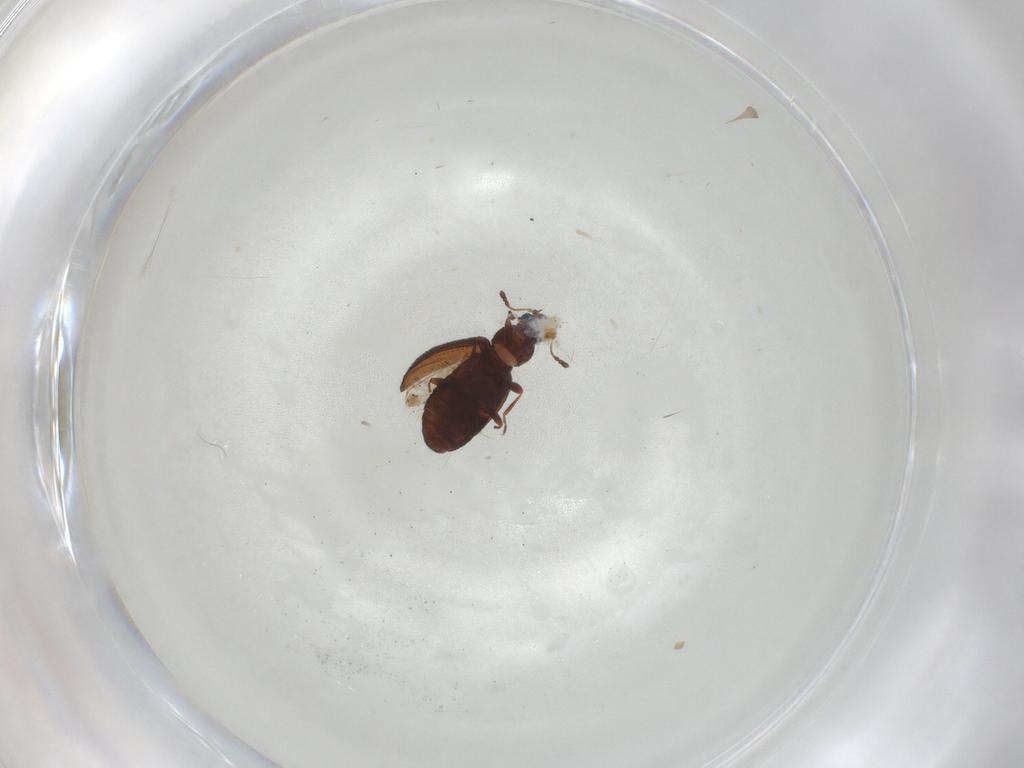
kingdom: Animalia
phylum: Arthropoda
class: Insecta
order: Coleoptera
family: Latridiidae
